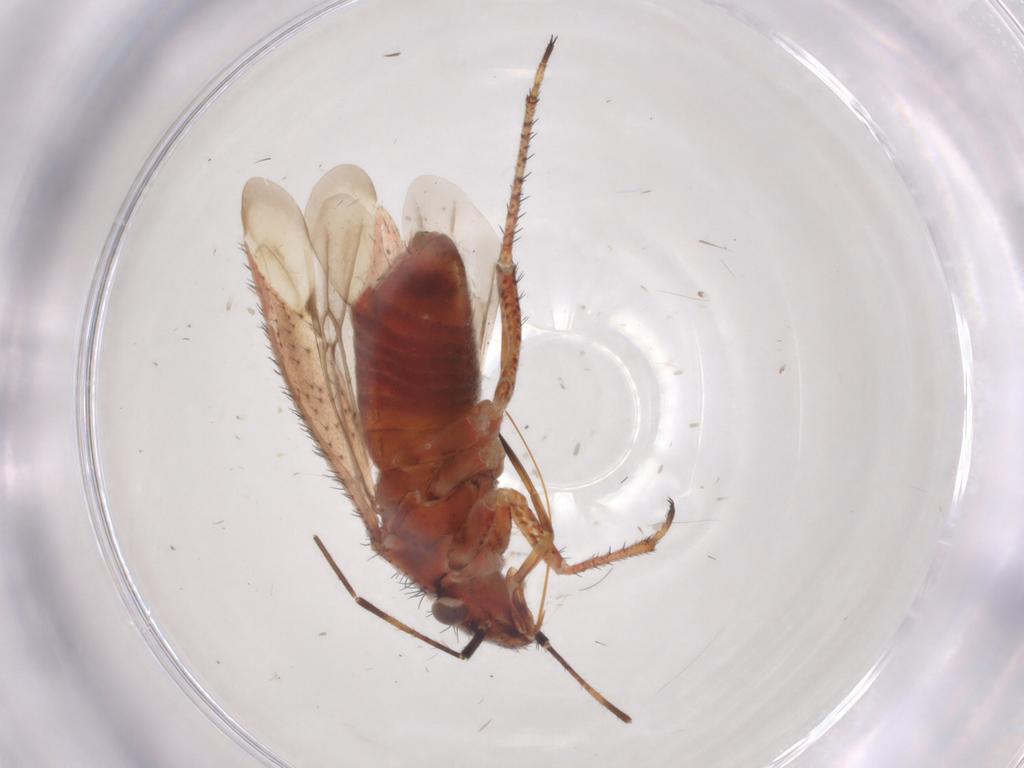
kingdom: Animalia
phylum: Arthropoda
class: Insecta
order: Hemiptera
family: Miridae
